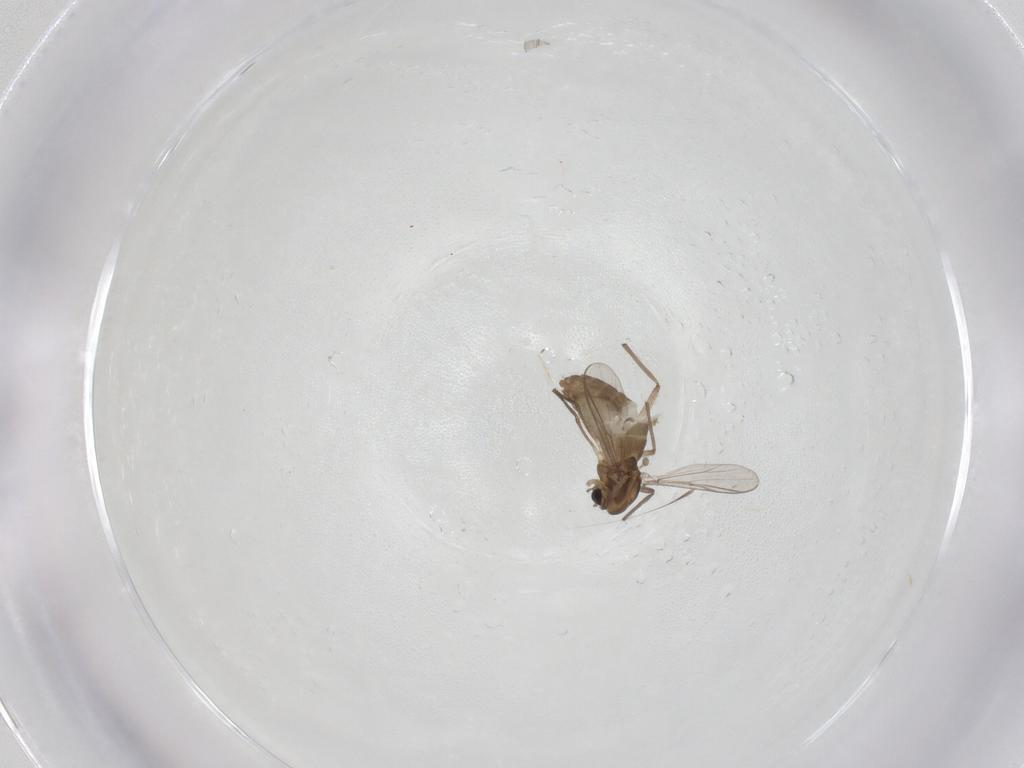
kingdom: Animalia
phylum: Arthropoda
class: Insecta
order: Diptera
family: Chironomidae
